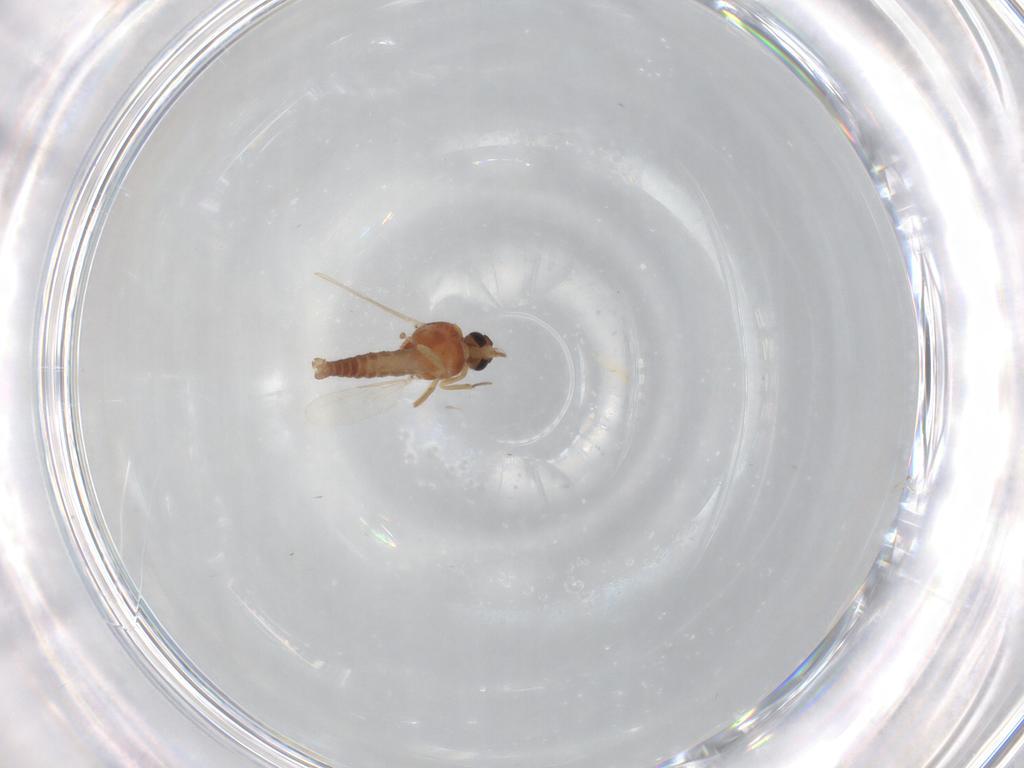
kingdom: Animalia
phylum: Arthropoda
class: Insecta
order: Diptera
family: Ceratopogonidae
